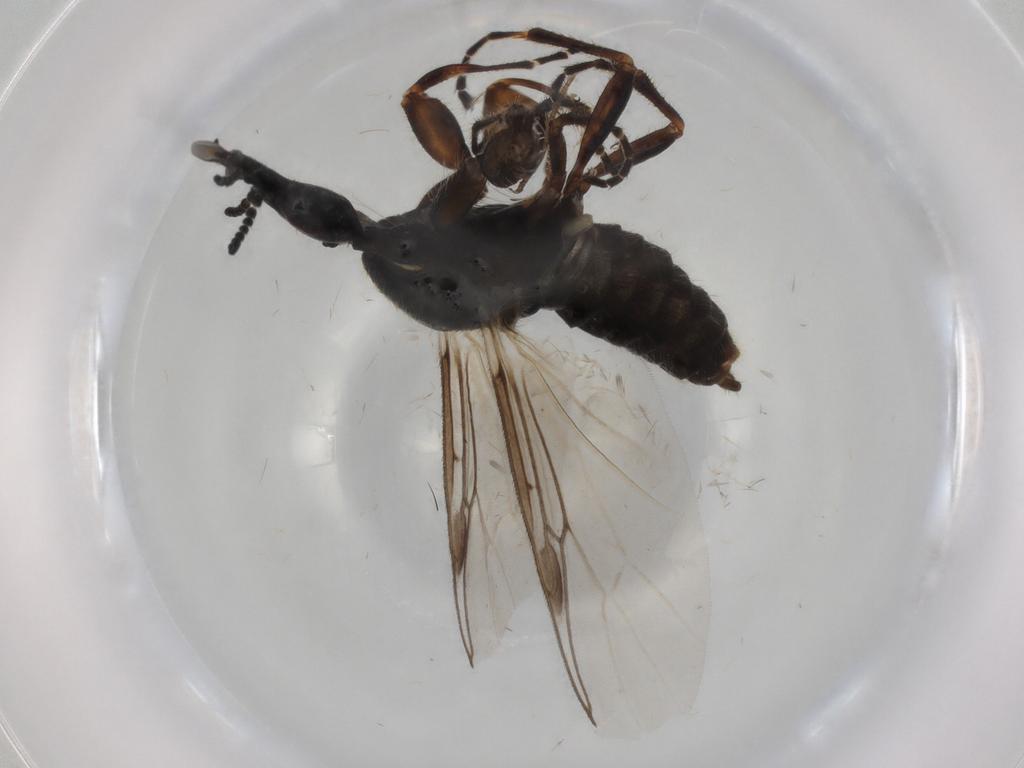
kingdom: Animalia
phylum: Arthropoda
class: Insecta
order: Diptera
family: Bibionidae
